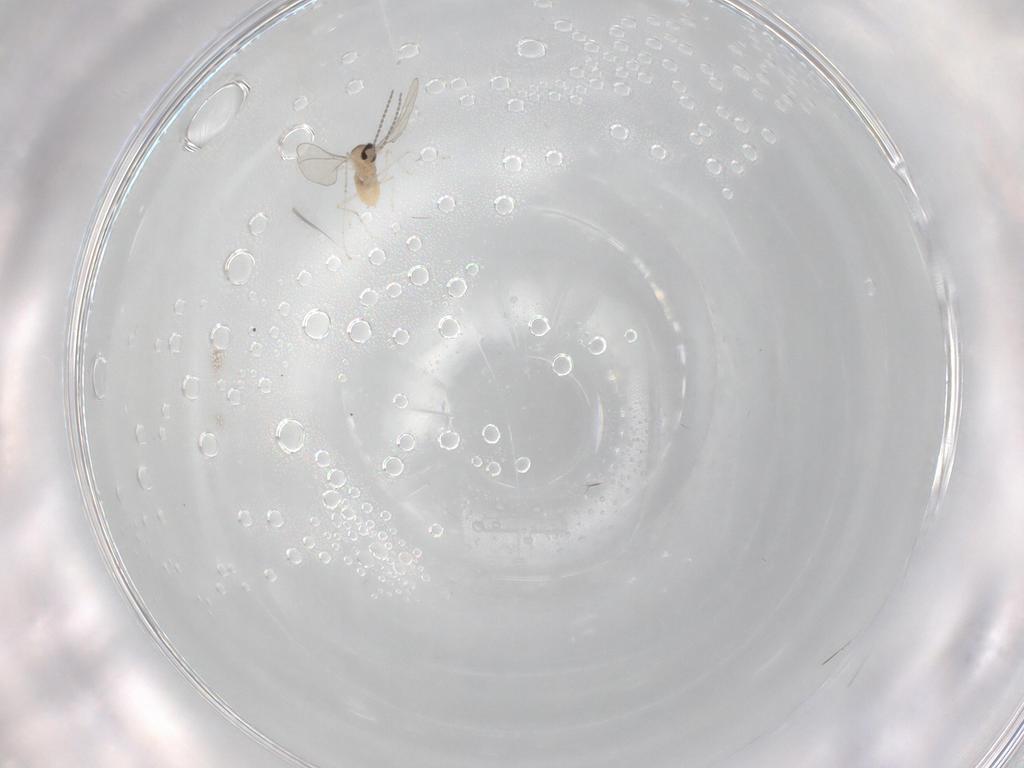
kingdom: Animalia
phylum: Arthropoda
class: Insecta
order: Diptera
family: Cecidomyiidae
